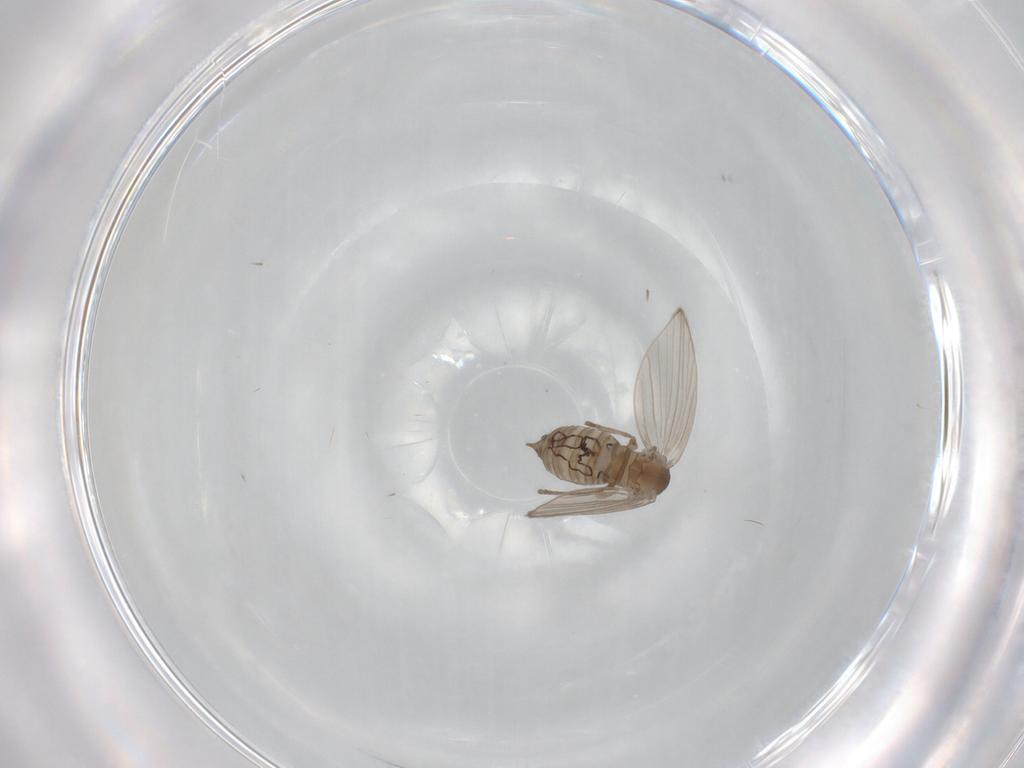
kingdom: Animalia
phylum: Arthropoda
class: Insecta
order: Diptera
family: Psychodidae
